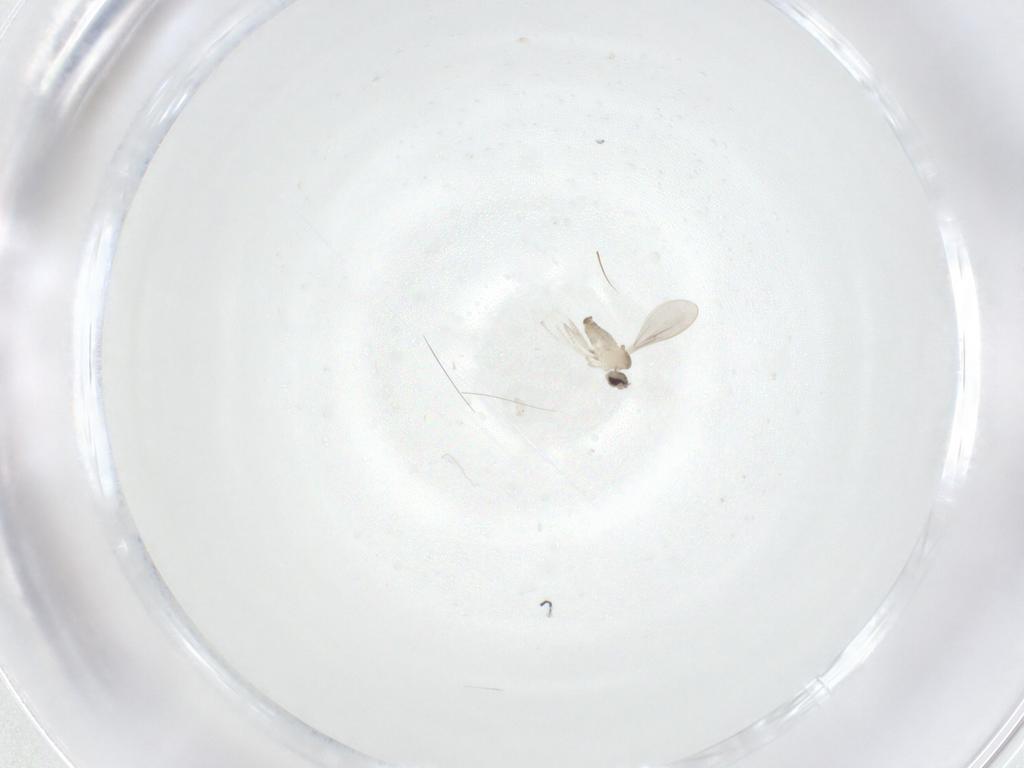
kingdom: Animalia
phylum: Arthropoda
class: Insecta
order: Diptera
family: Cecidomyiidae
